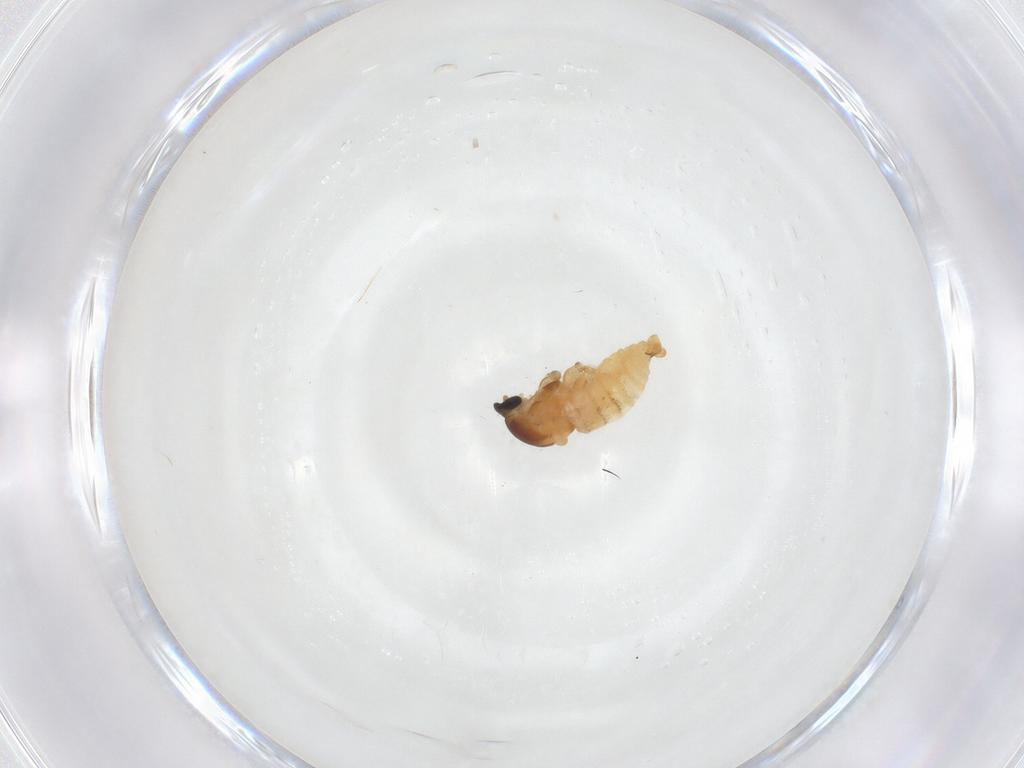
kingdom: Animalia
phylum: Arthropoda
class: Insecta
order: Diptera
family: Cecidomyiidae
